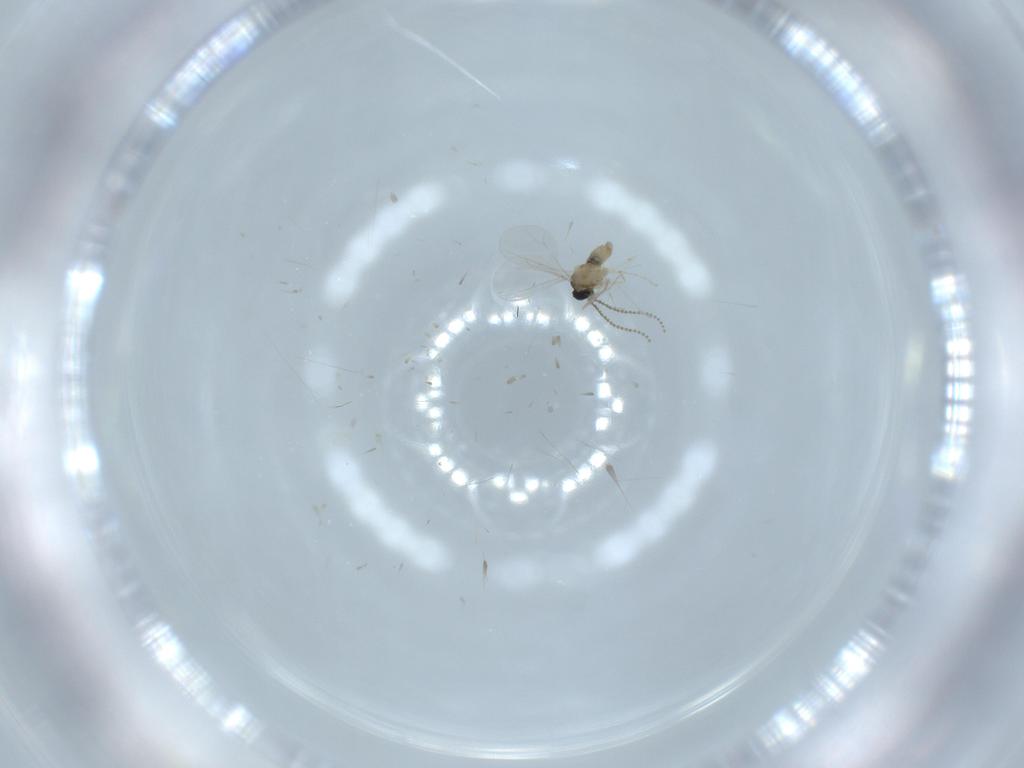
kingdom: Animalia
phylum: Arthropoda
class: Insecta
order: Diptera
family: Cecidomyiidae
